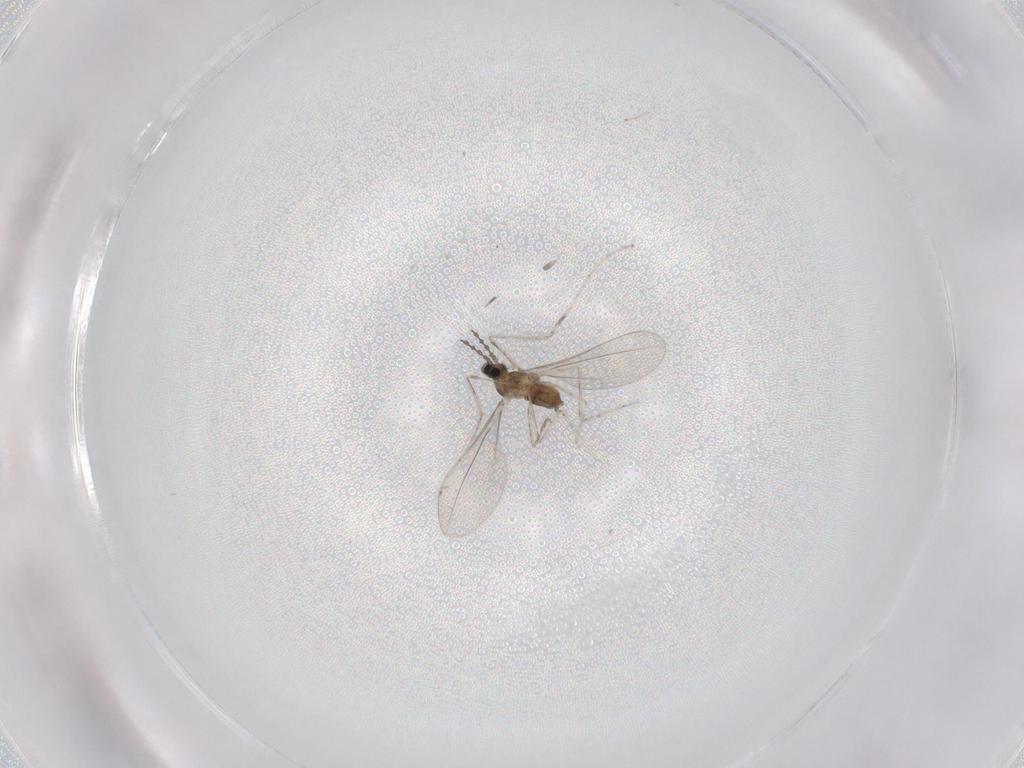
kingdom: Animalia
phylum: Arthropoda
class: Insecta
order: Diptera
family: Cecidomyiidae
